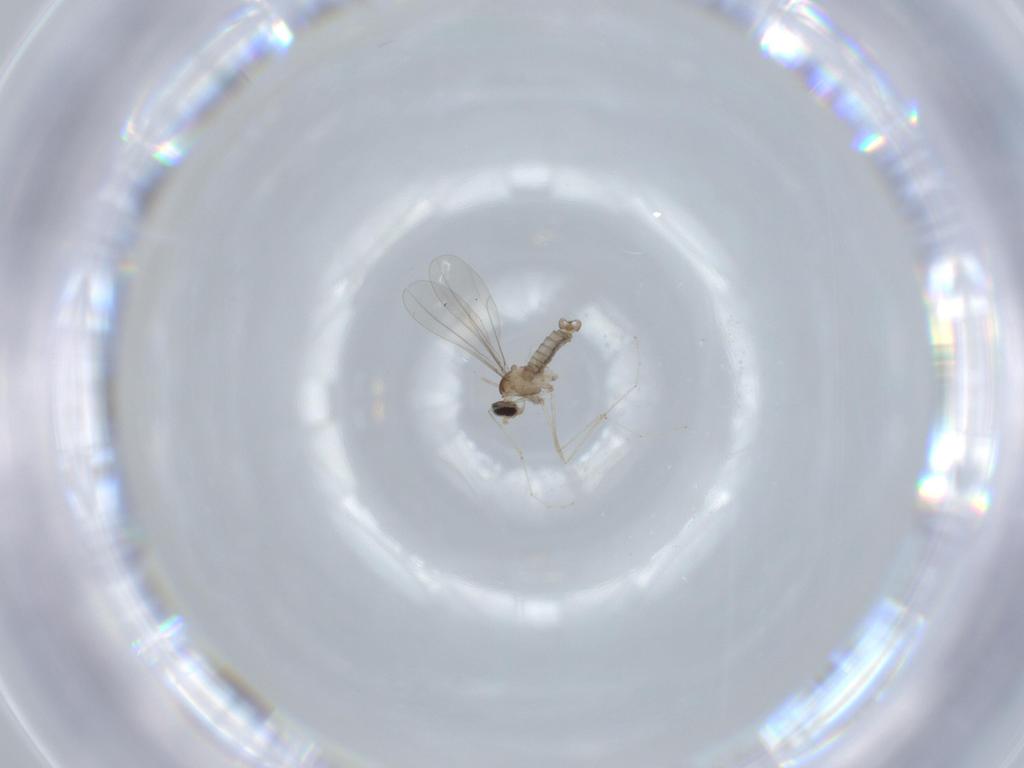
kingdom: Animalia
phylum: Arthropoda
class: Insecta
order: Diptera
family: Cecidomyiidae
